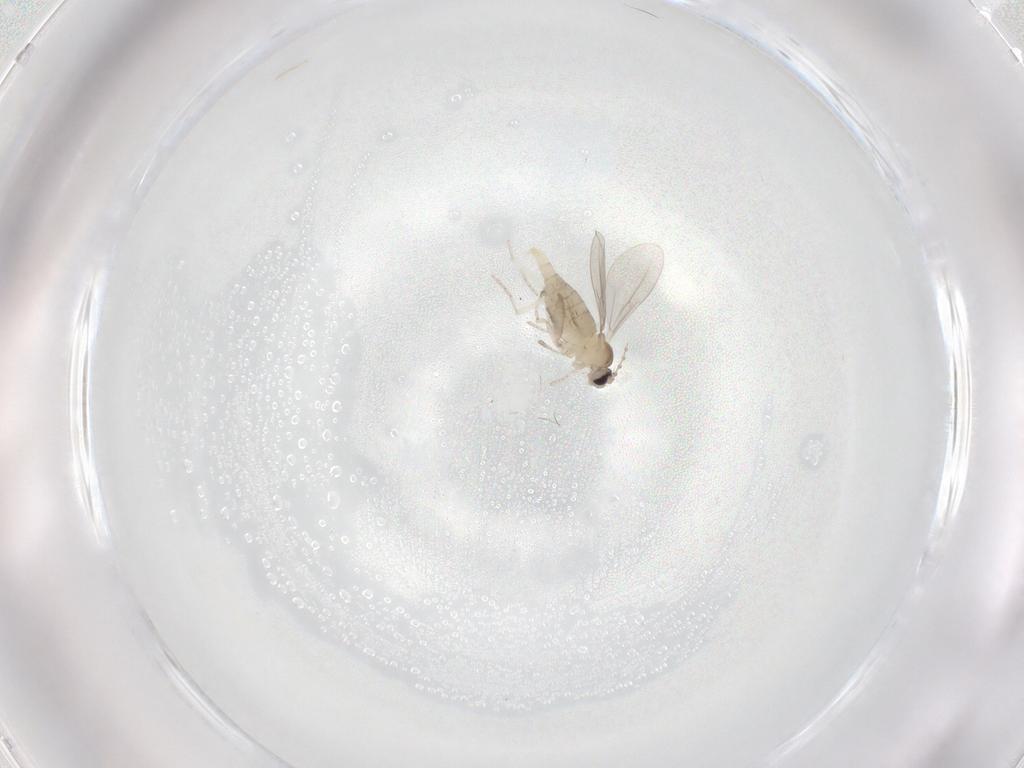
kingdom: Animalia
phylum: Arthropoda
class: Insecta
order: Diptera
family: Cecidomyiidae
